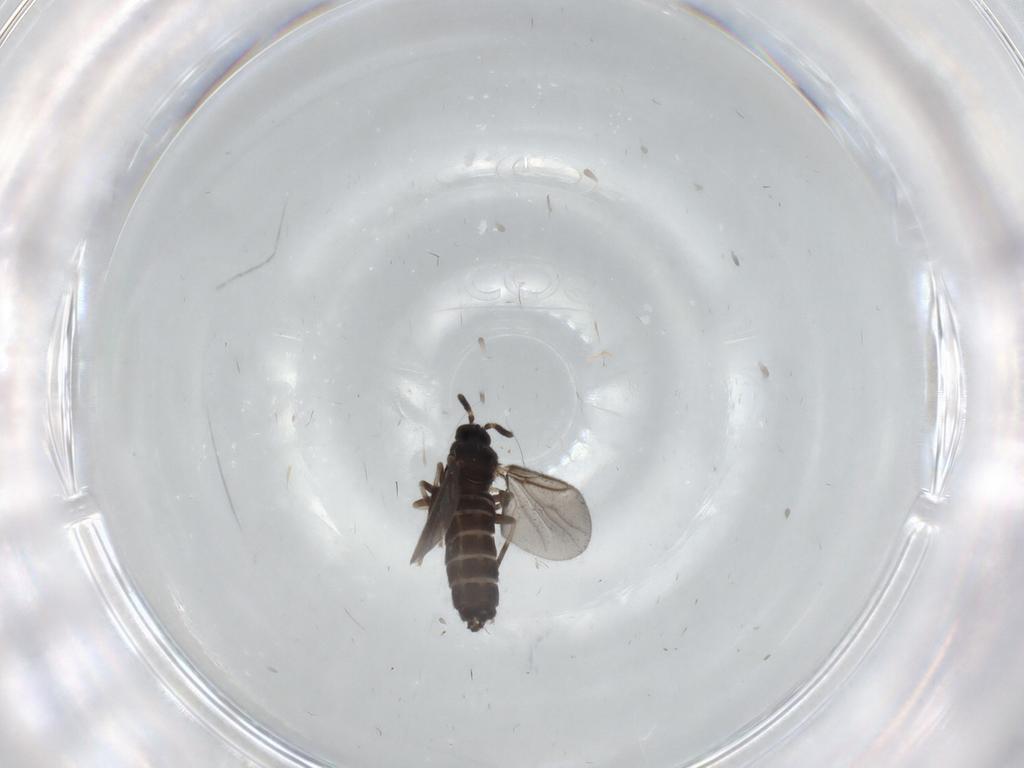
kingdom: Animalia
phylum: Arthropoda
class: Insecta
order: Diptera
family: Scatopsidae
